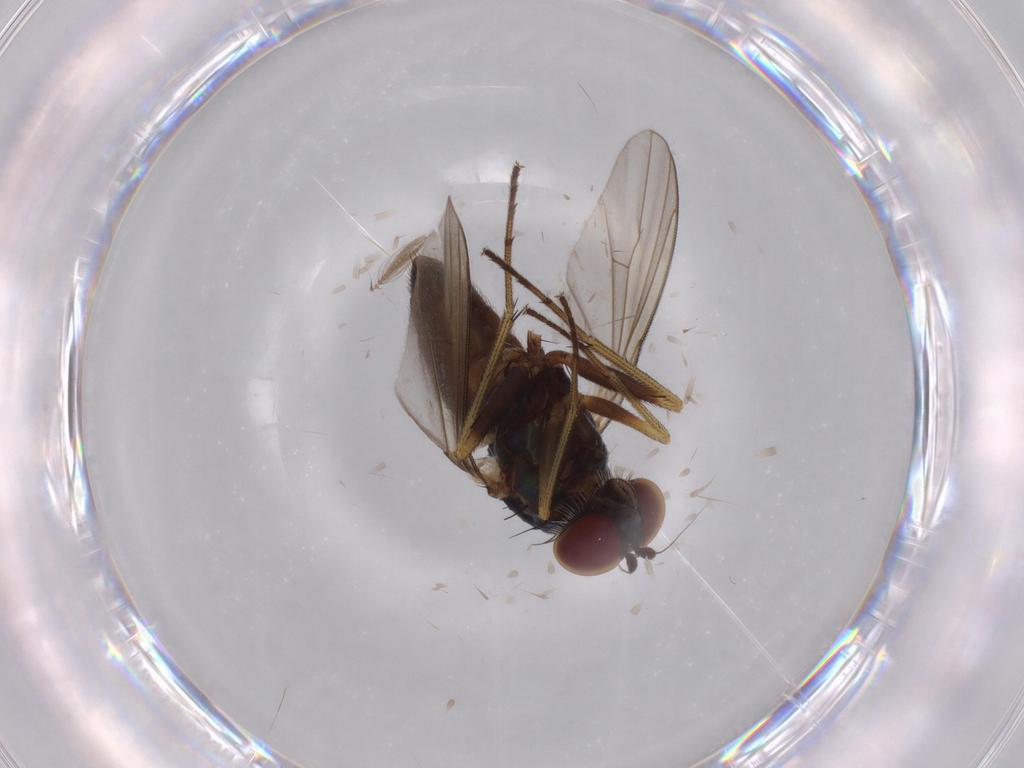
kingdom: Animalia
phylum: Arthropoda
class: Insecta
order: Diptera
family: Dolichopodidae
